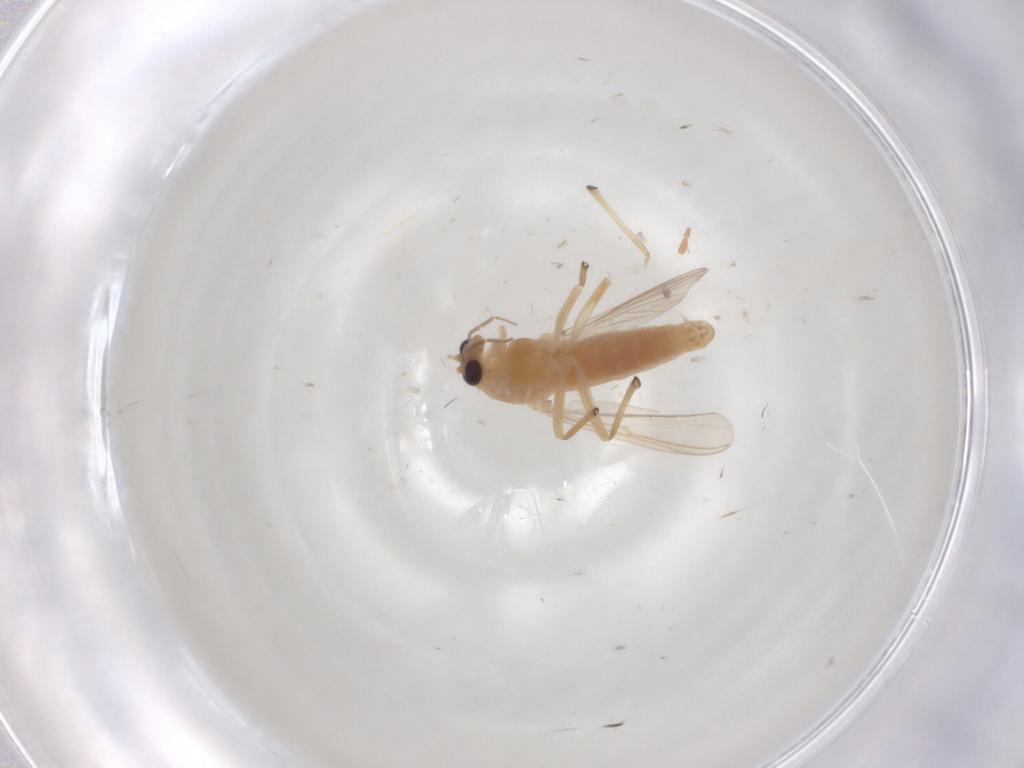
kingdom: Animalia
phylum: Arthropoda
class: Insecta
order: Diptera
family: Chironomidae
